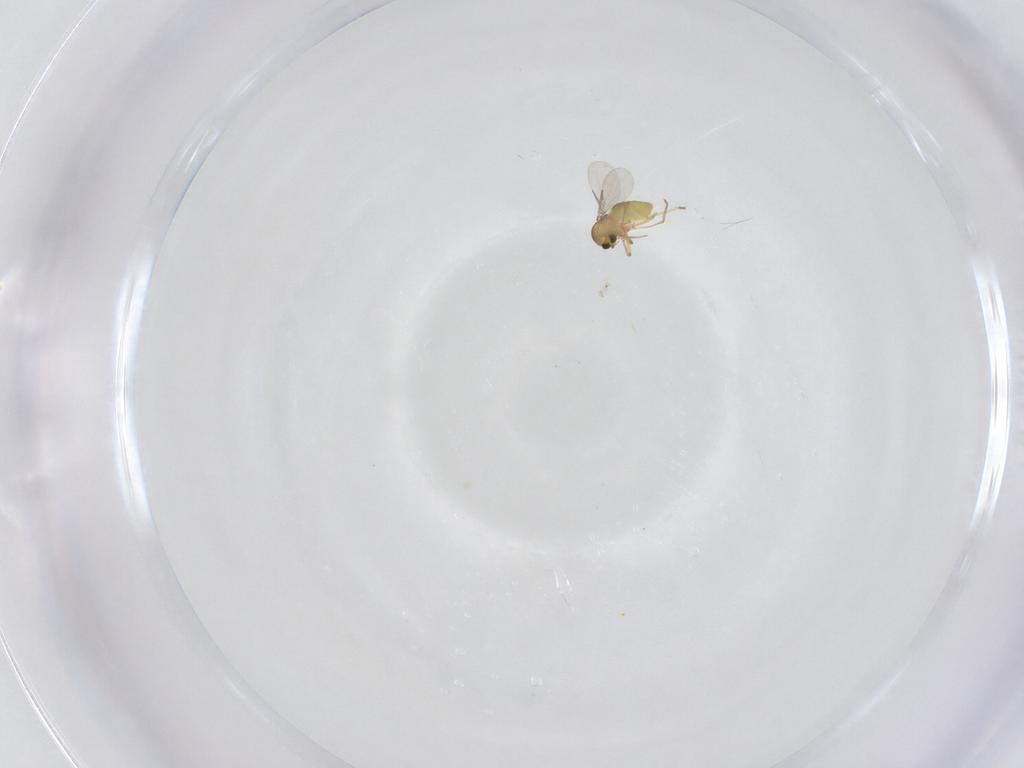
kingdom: Animalia
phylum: Arthropoda
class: Insecta
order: Diptera
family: Ceratopogonidae
